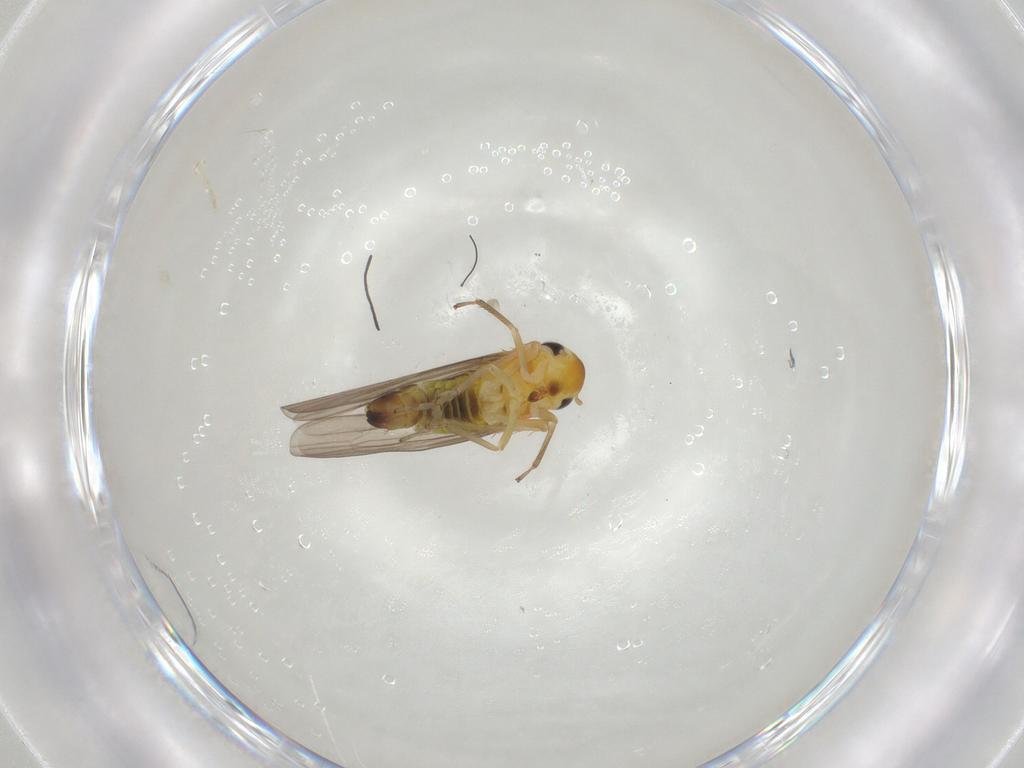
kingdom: Animalia
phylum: Arthropoda
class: Insecta
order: Hemiptera
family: Cicadellidae
